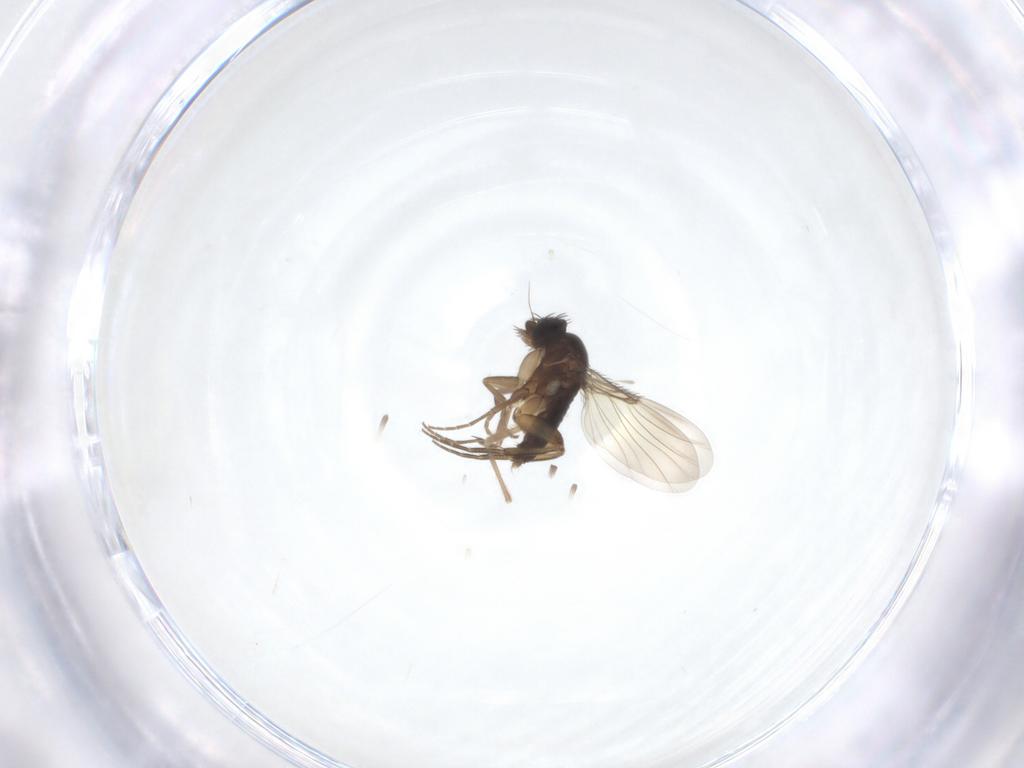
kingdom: Animalia
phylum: Arthropoda
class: Insecta
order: Diptera
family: Phoridae
